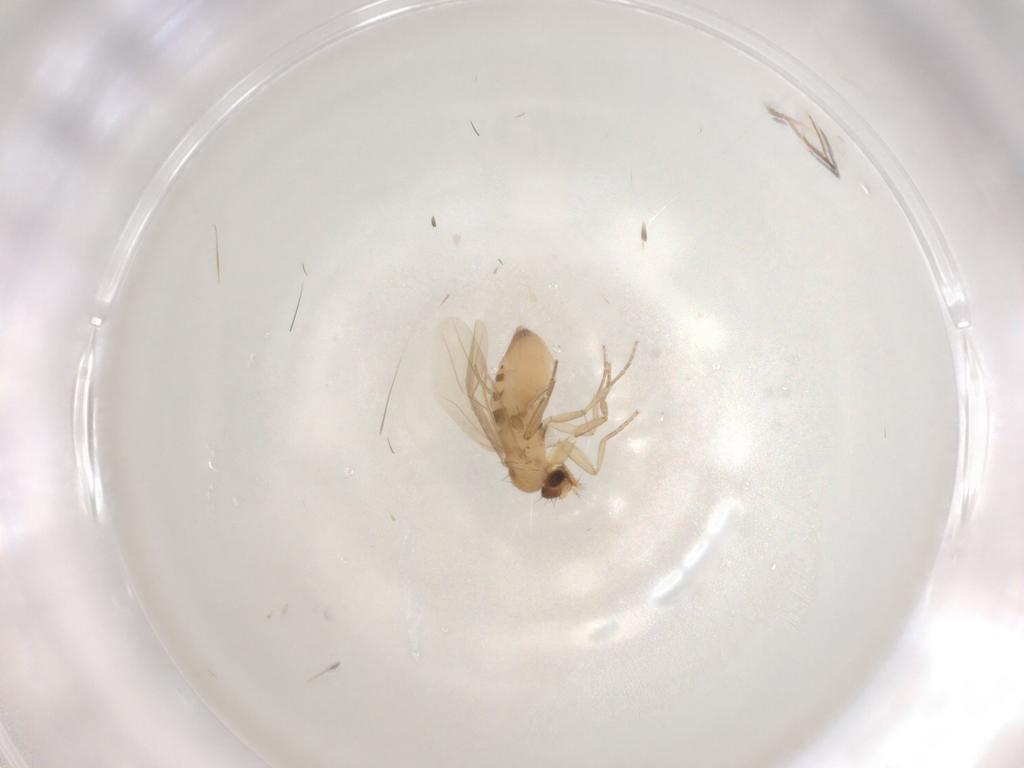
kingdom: Animalia
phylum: Arthropoda
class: Insecta
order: Diptera
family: Phoridae
